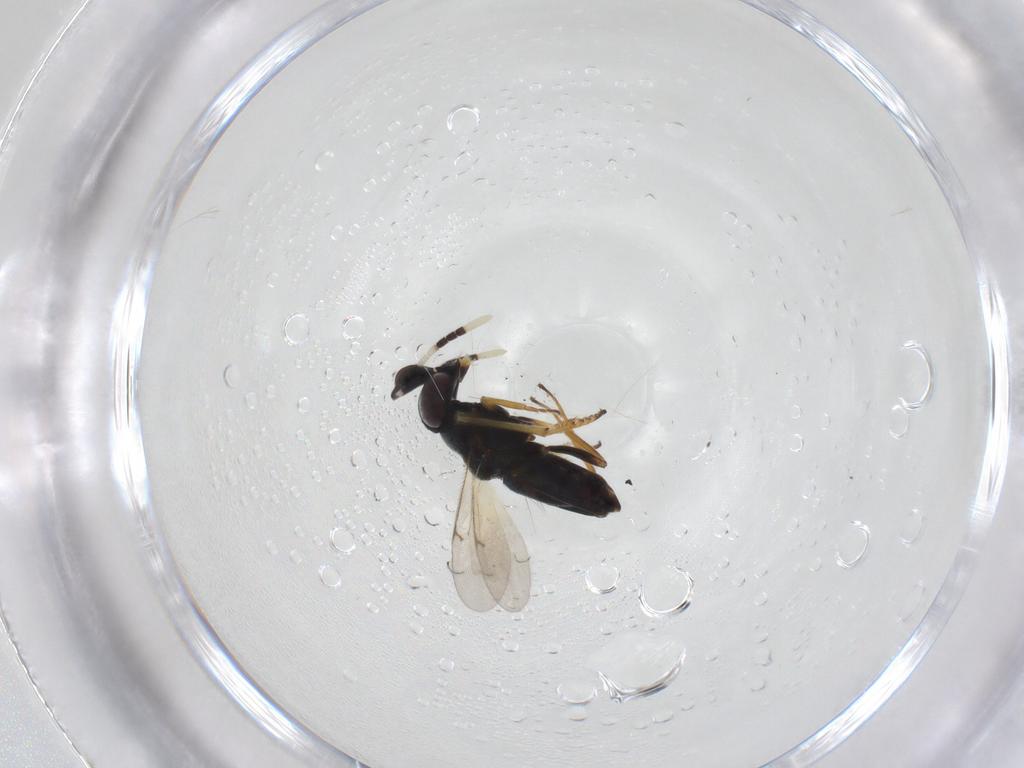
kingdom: Animalia
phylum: Arthropoda
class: Insecta
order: Hymenoptera
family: Encyrtidae
